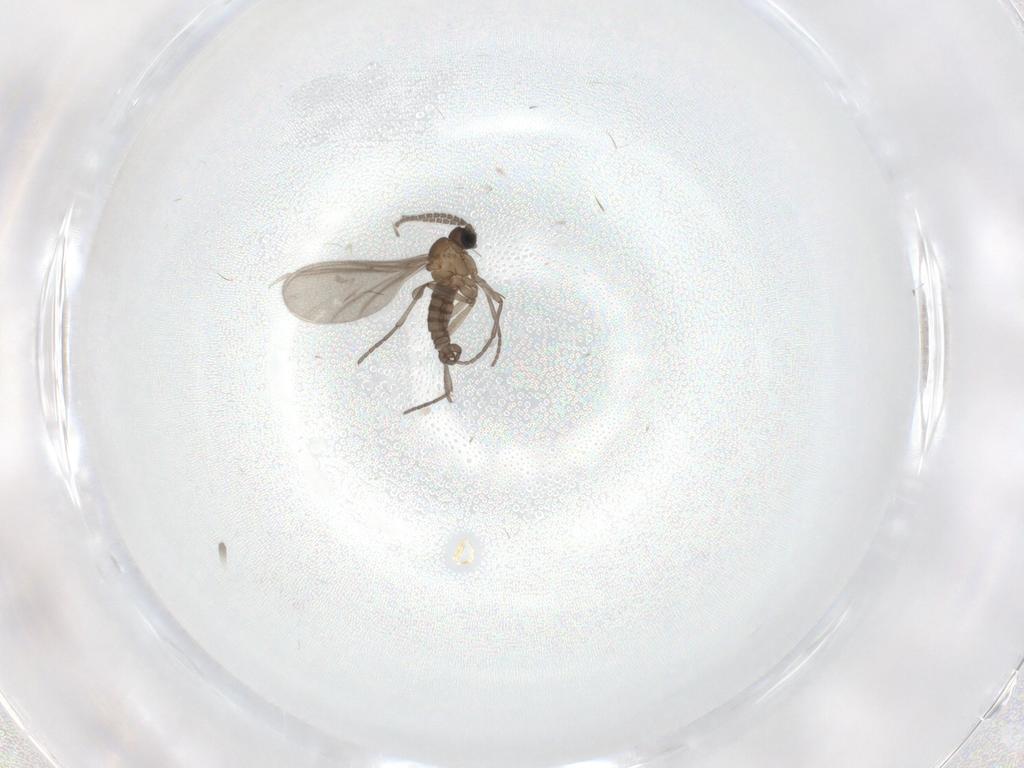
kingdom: Animalia
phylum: Arthropoda
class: Insecta
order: Diptera
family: Sciaridae
